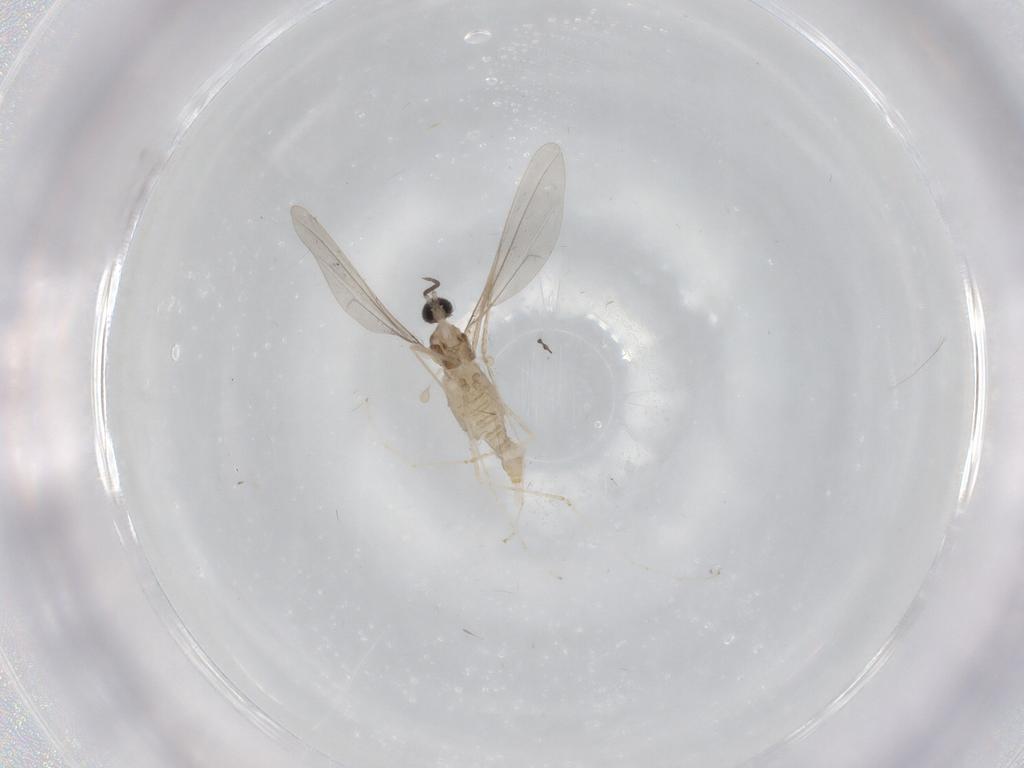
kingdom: Animalia
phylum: Arthropoda
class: Insecta
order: Diptera
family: Cecidomyiidae
